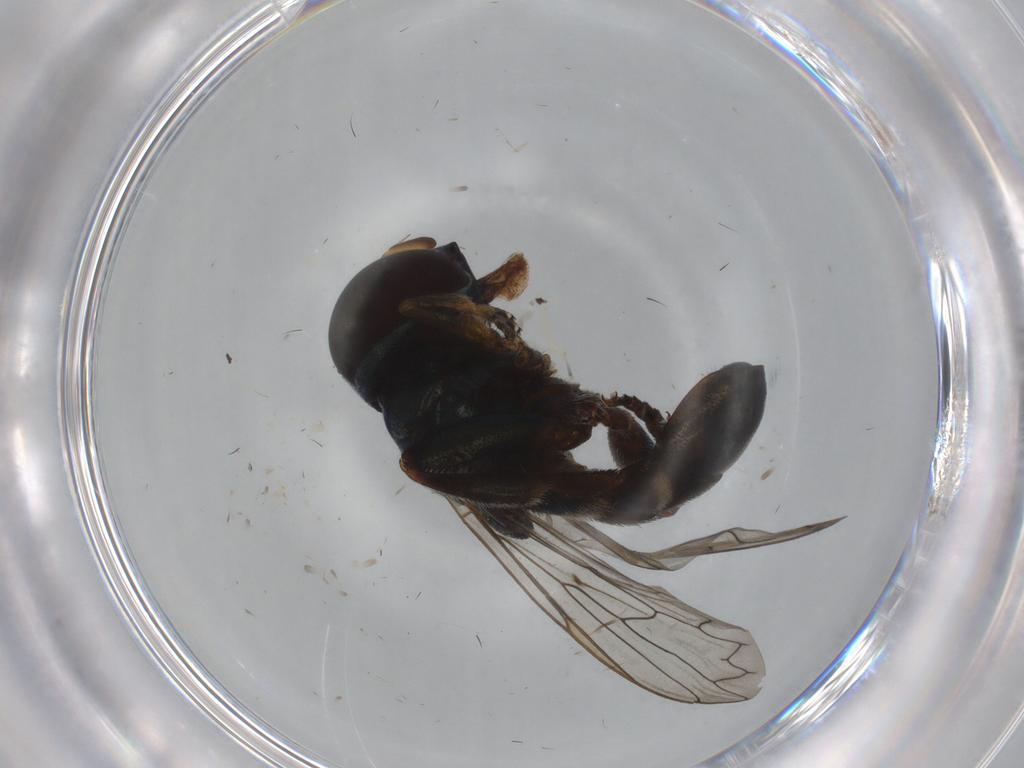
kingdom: Animalia
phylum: Arthropoda
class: Insecta
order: Diptera
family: Syrphidae
